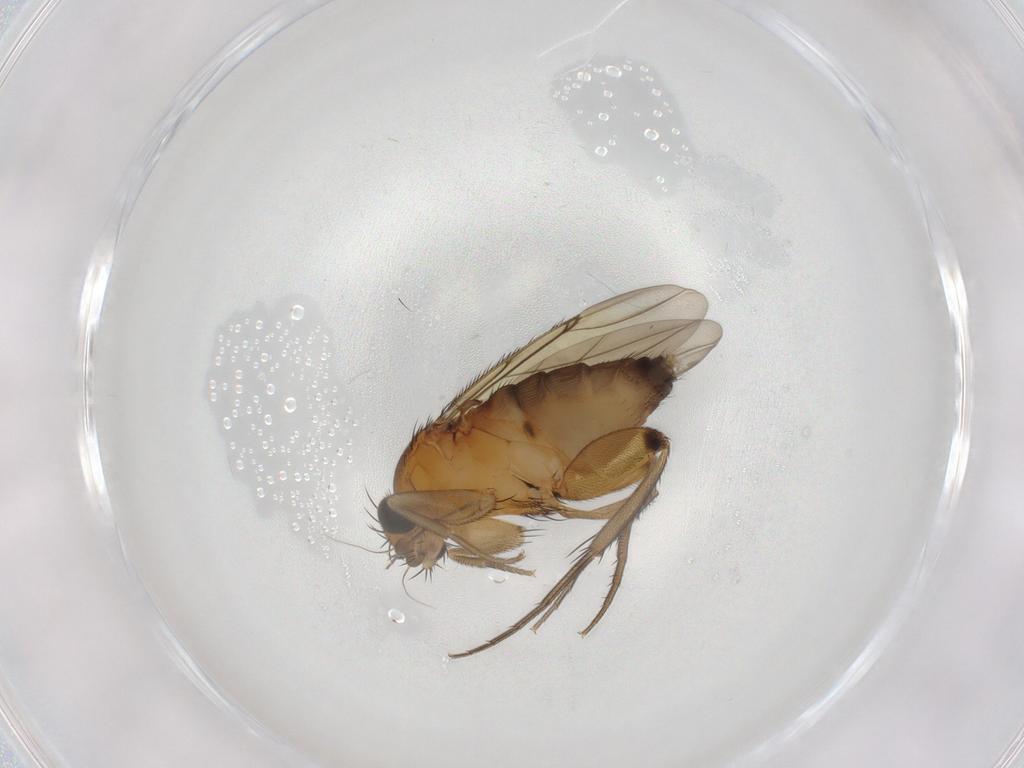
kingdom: Animalia
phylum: Arthropoda
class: Insecta
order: Diptera
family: Phoridae
